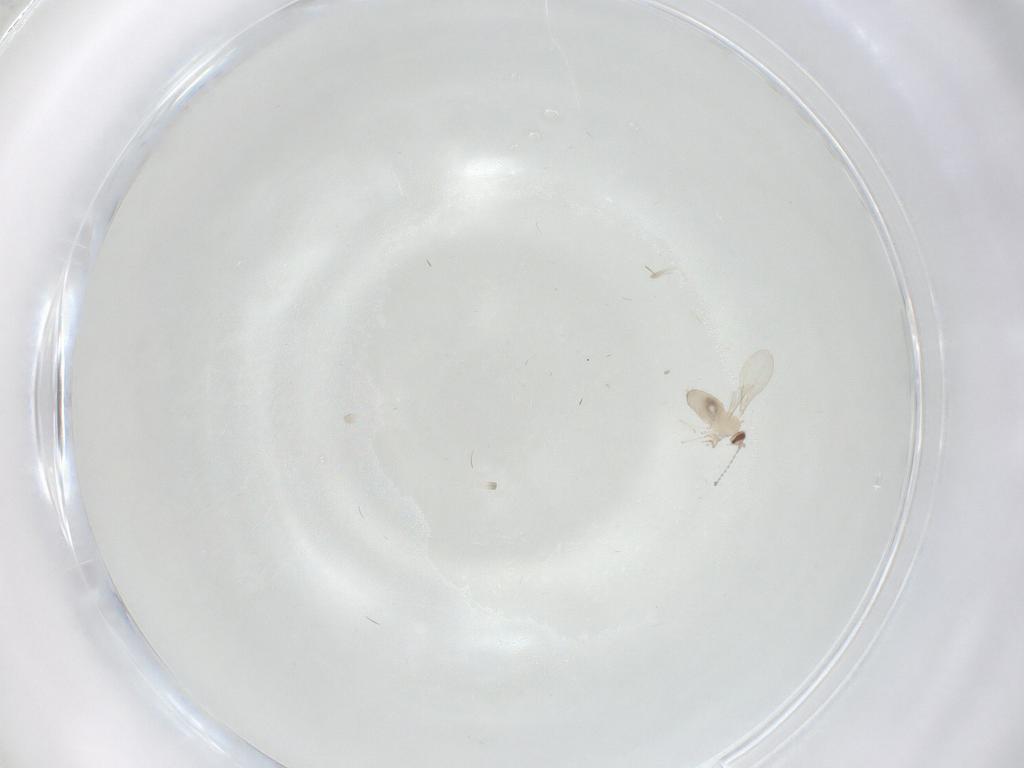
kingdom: Animalia
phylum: Arthropoda
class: Insecta
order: Diptera
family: Cecidomyiidae
